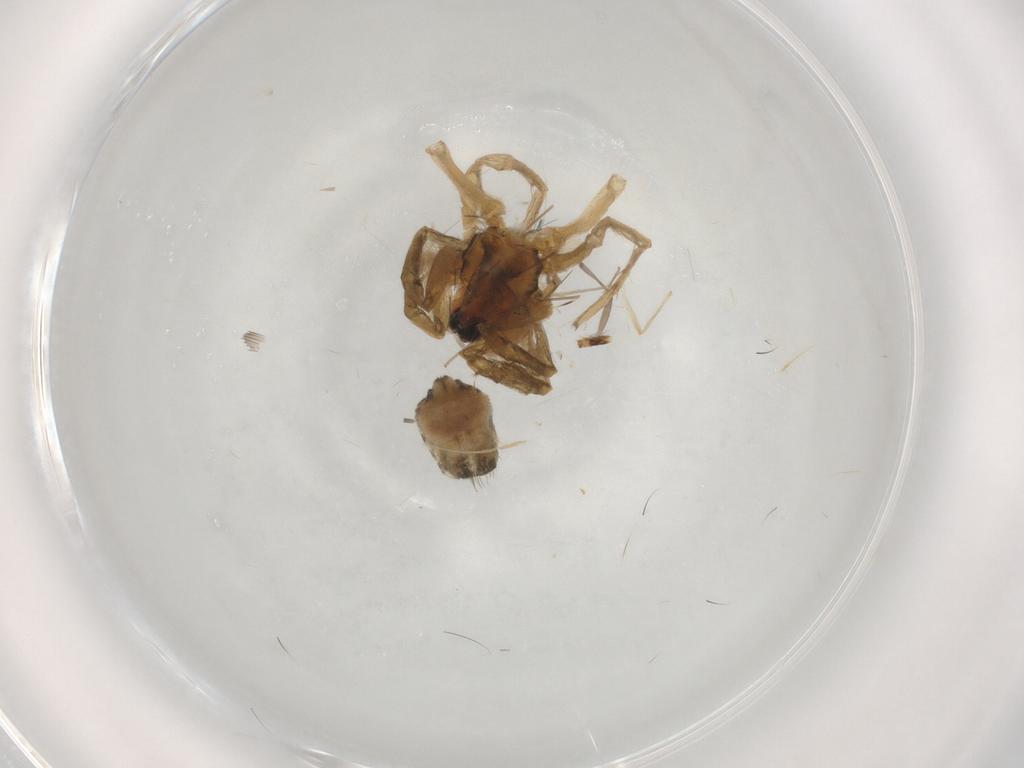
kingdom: Animalia
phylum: Arthropoda
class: Arachnida
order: Araneae
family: Lycosidae
